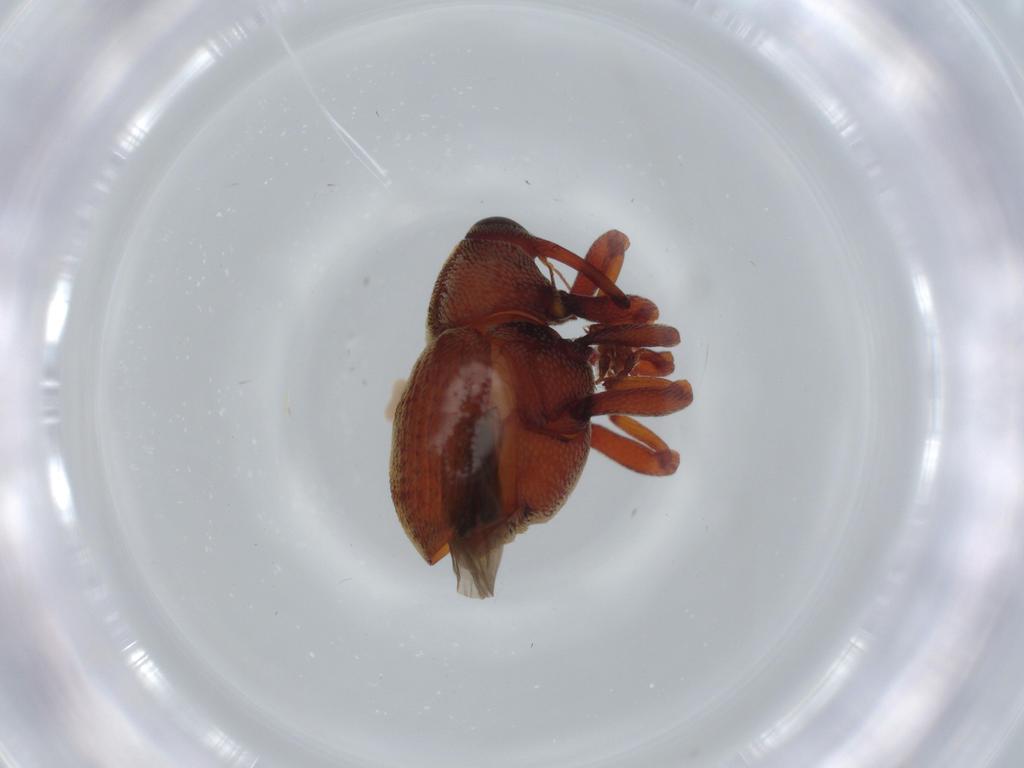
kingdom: Animalia
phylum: Arthropoda
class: Insecta
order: Coleoptera
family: Curculionidae
